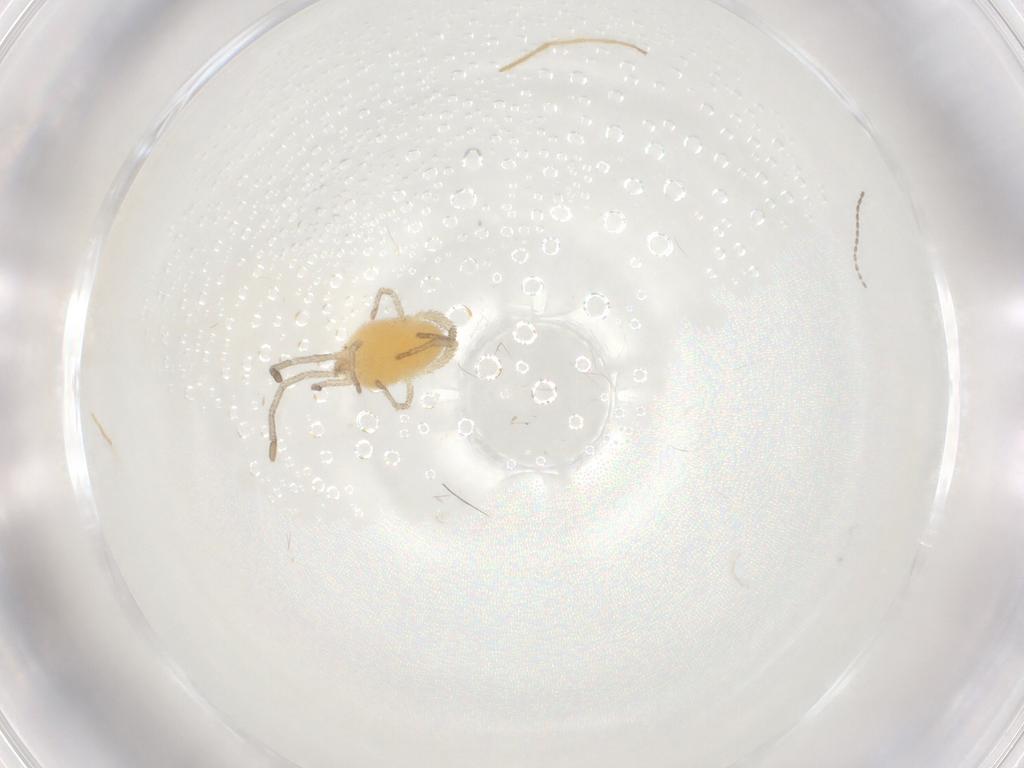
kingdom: Animalia
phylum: Arthropoda
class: Arachnida
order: Trombidiformes
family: Smarididae
